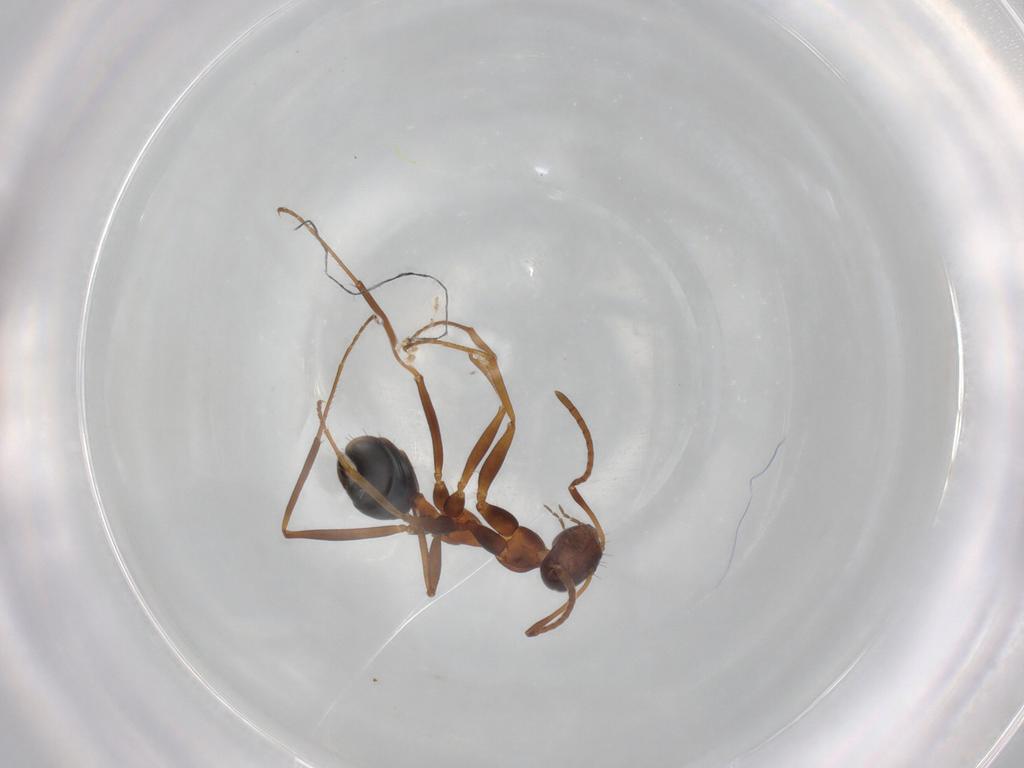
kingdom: Animalia
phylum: Arthropoda
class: Insecta
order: Hymenoptera
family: Formicidae
